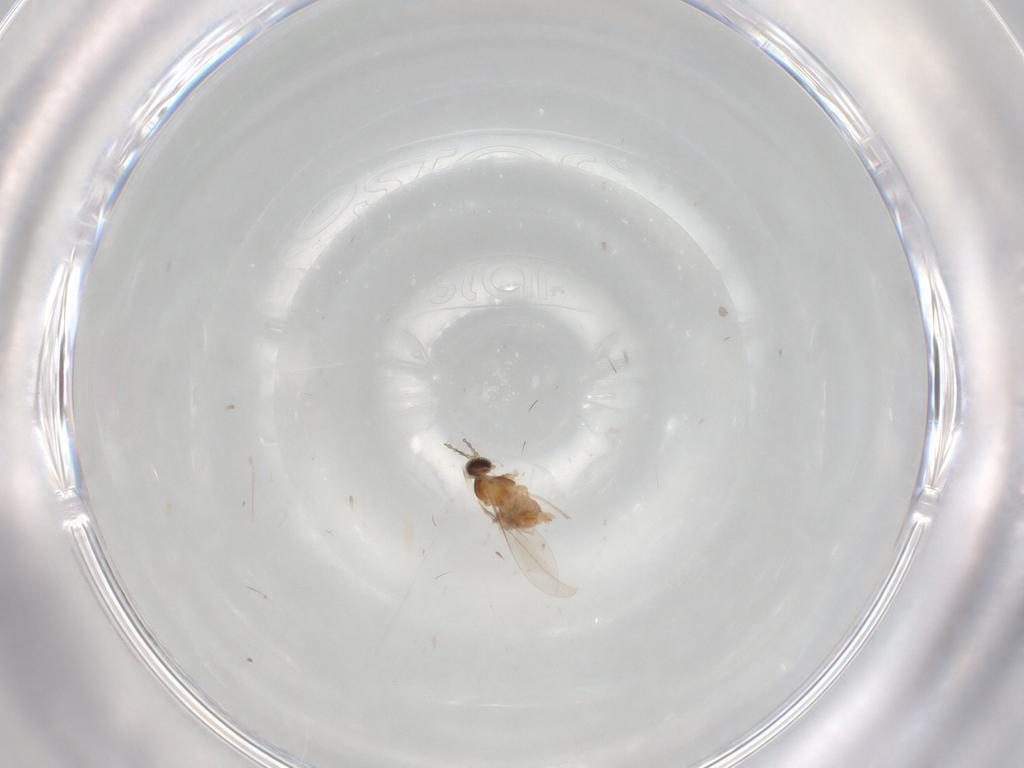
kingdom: Animalia
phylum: Arthropoda
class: Insecta
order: Diptera
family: Cecidomyiidae
